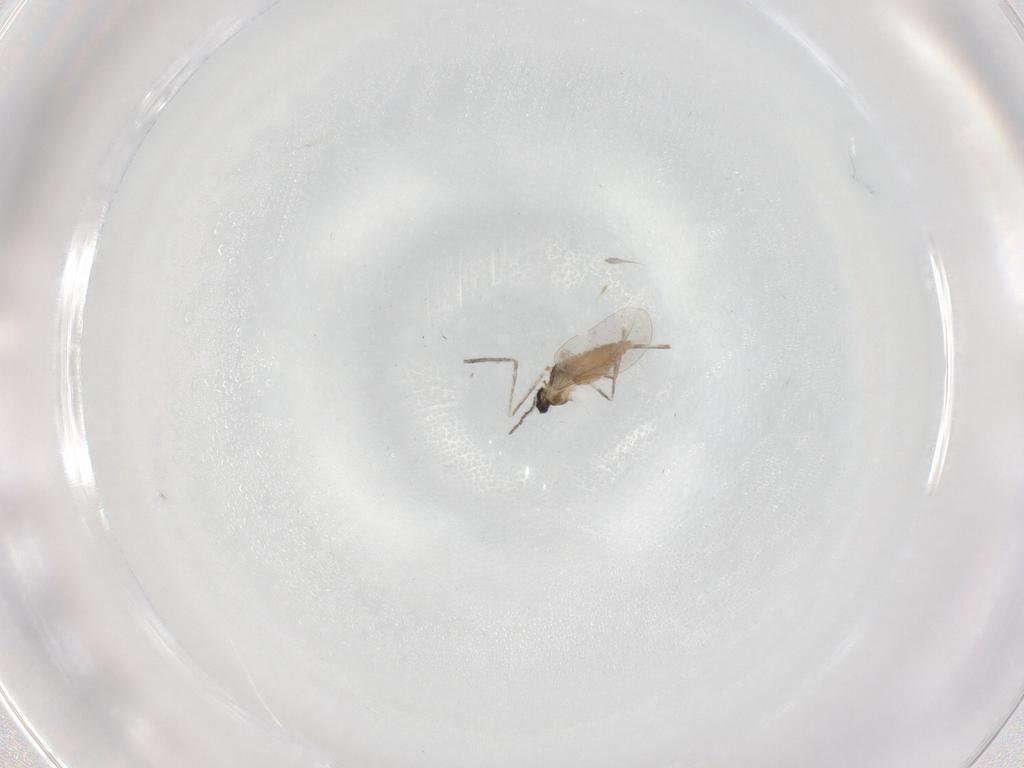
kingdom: Animalia
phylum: Arthropoda
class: Insecta
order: Diptera
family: Cecidomyiidae
